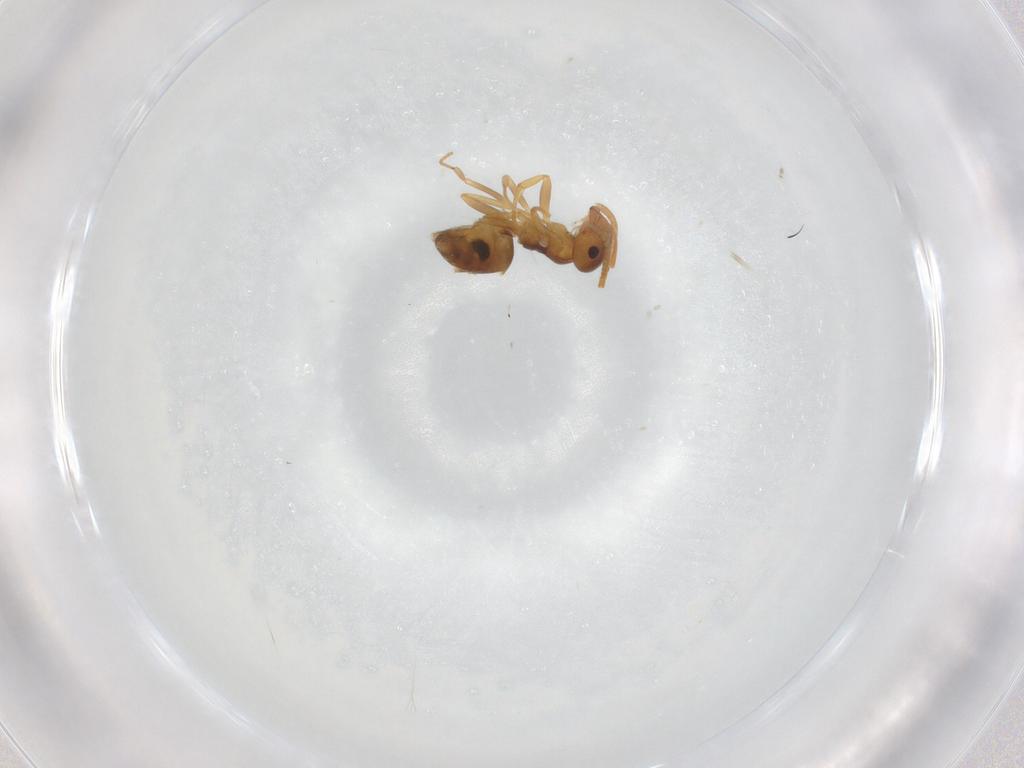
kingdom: Animalia
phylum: Arthropoda
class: Insecta
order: Hymenoptera
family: Formicidae
